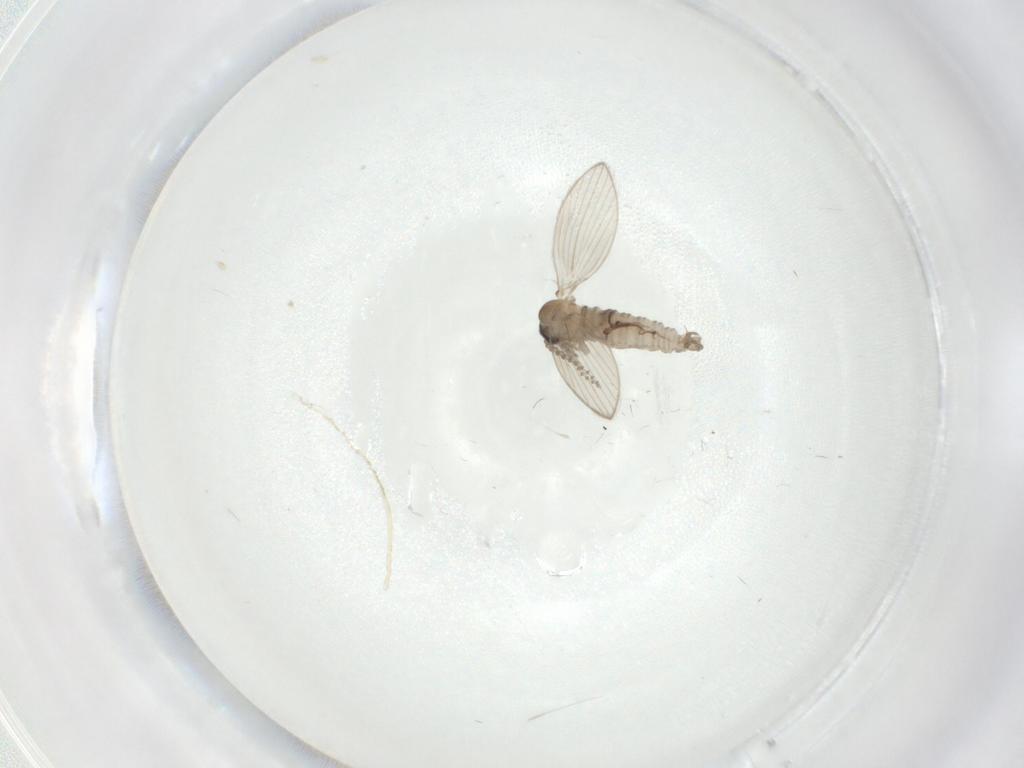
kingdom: Animalia
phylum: Arthropoda
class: Insecta
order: Diptera
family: Psychodidae
